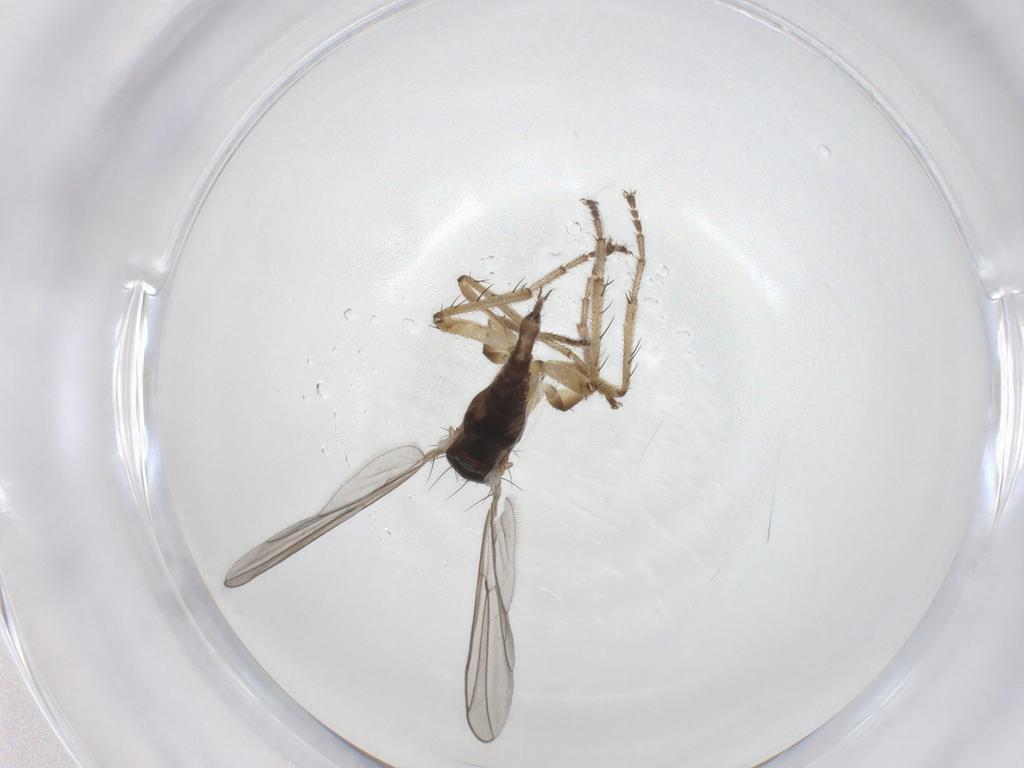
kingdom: Animalia
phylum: Arthropoda
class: Insecta
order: Diptera
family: Hybotidae
